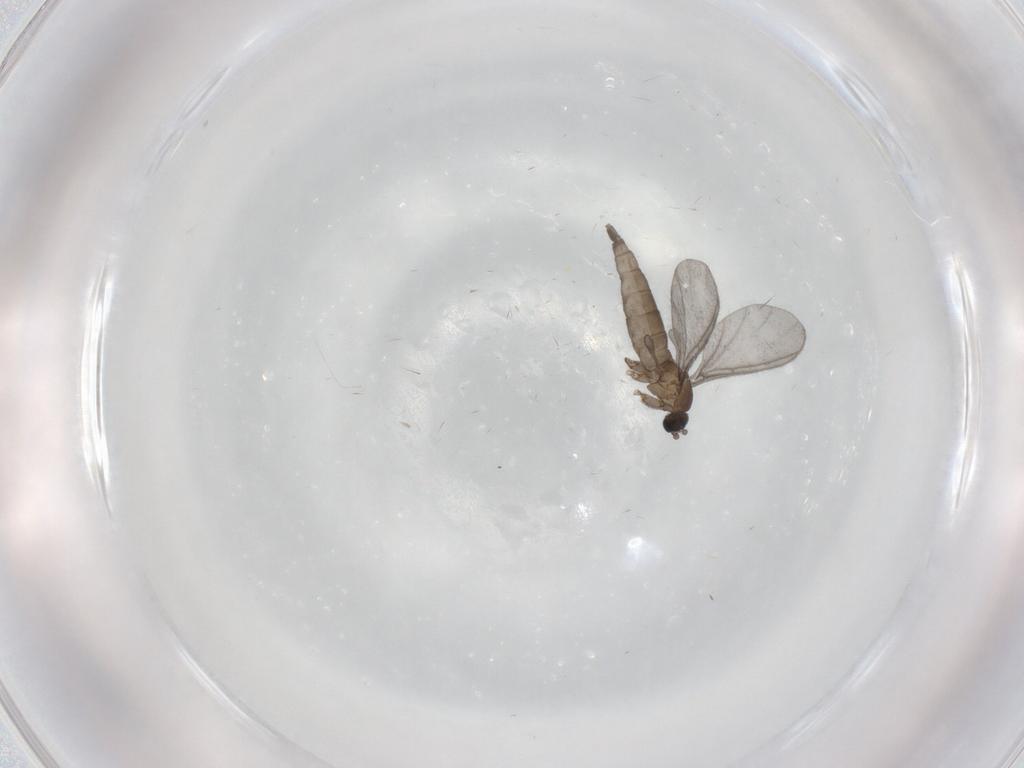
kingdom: Animalia
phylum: Arthropoda
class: Insecta
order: Diptera
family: Sciaridae
